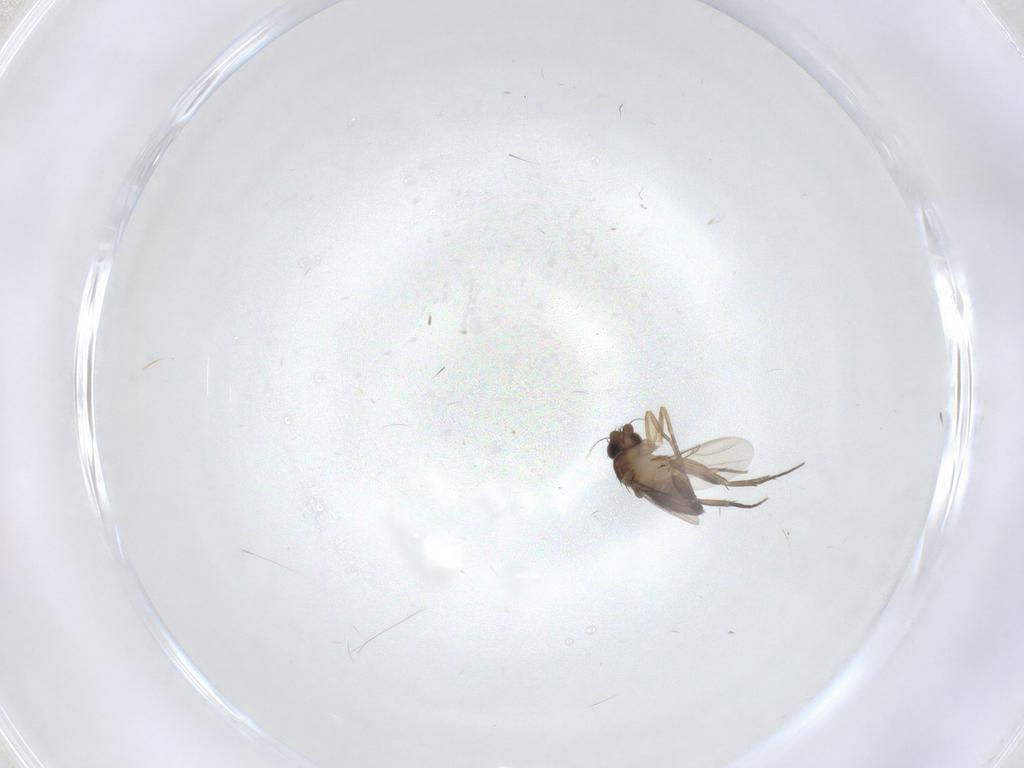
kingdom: Animalia
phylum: Arthropoda
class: Insecta
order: Diptera
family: Phoridae
